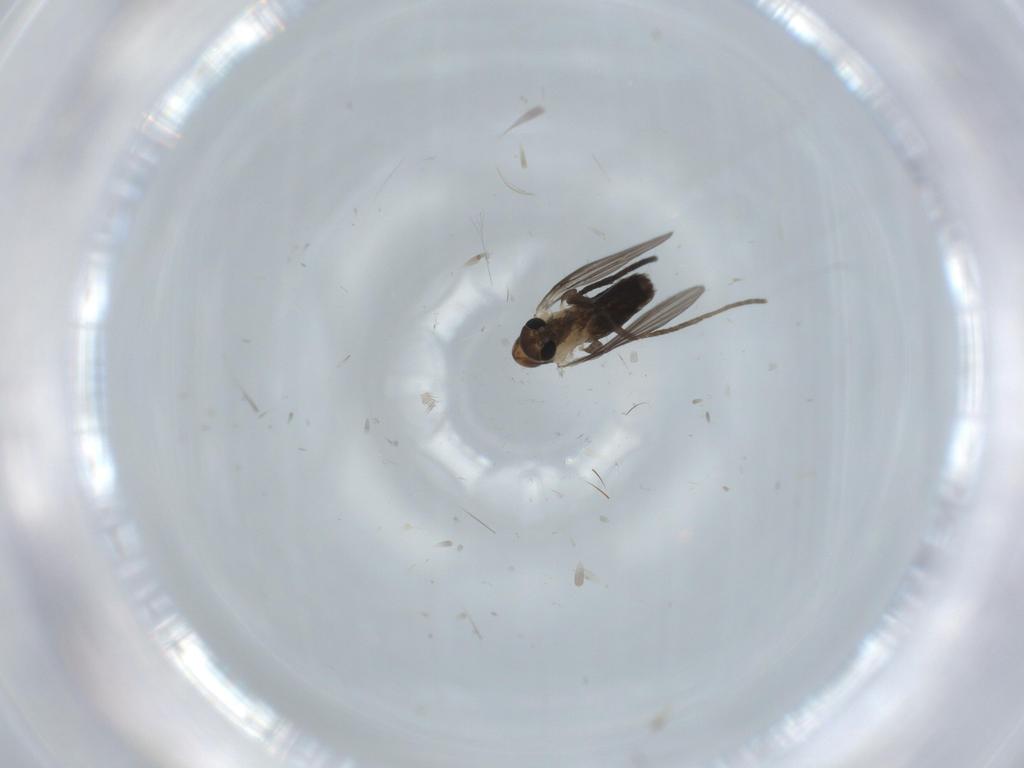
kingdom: Animalia
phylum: Arthropoda
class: Insecta
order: Diptera
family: Psychodidae
